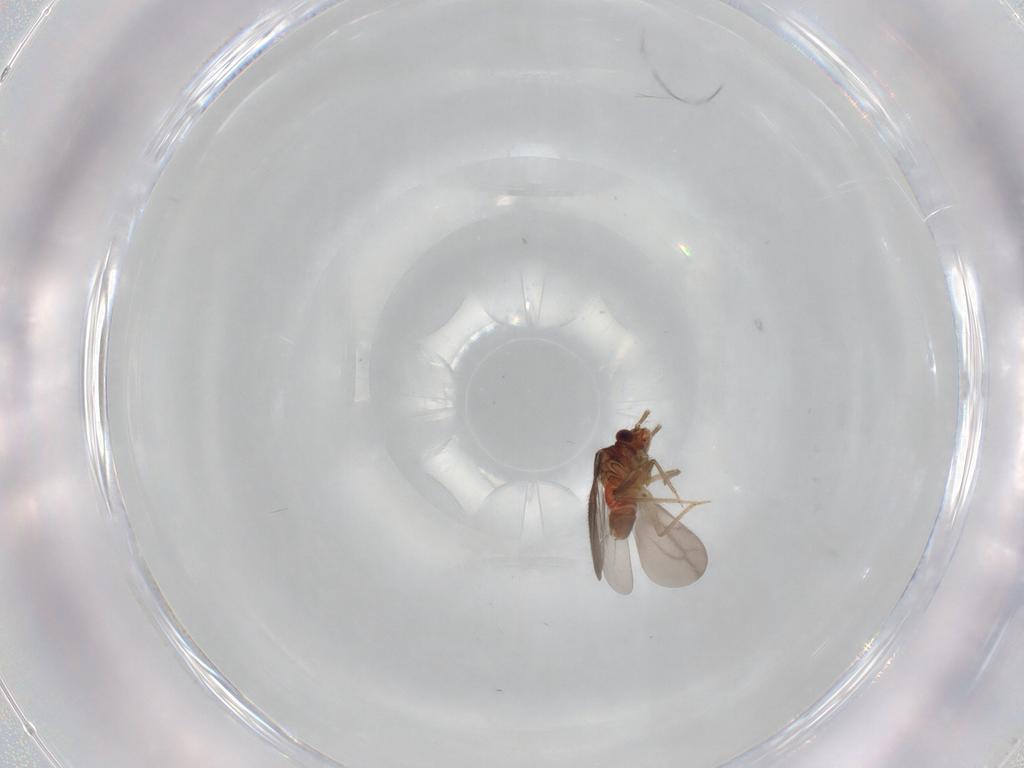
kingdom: Animalia
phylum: Arthropoda
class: Insecta
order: Hemiptera
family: Ceratocombidae
